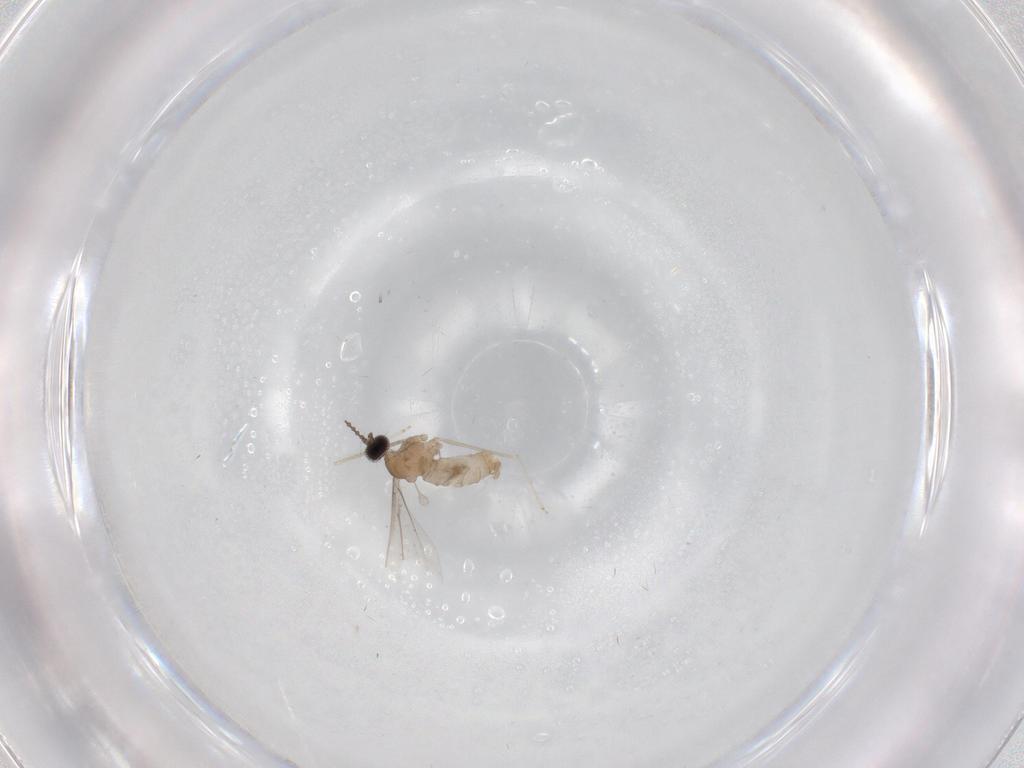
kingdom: Animalia
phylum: Arthropoda
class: Insecta
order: Diptera
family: Cecidomyiidae
